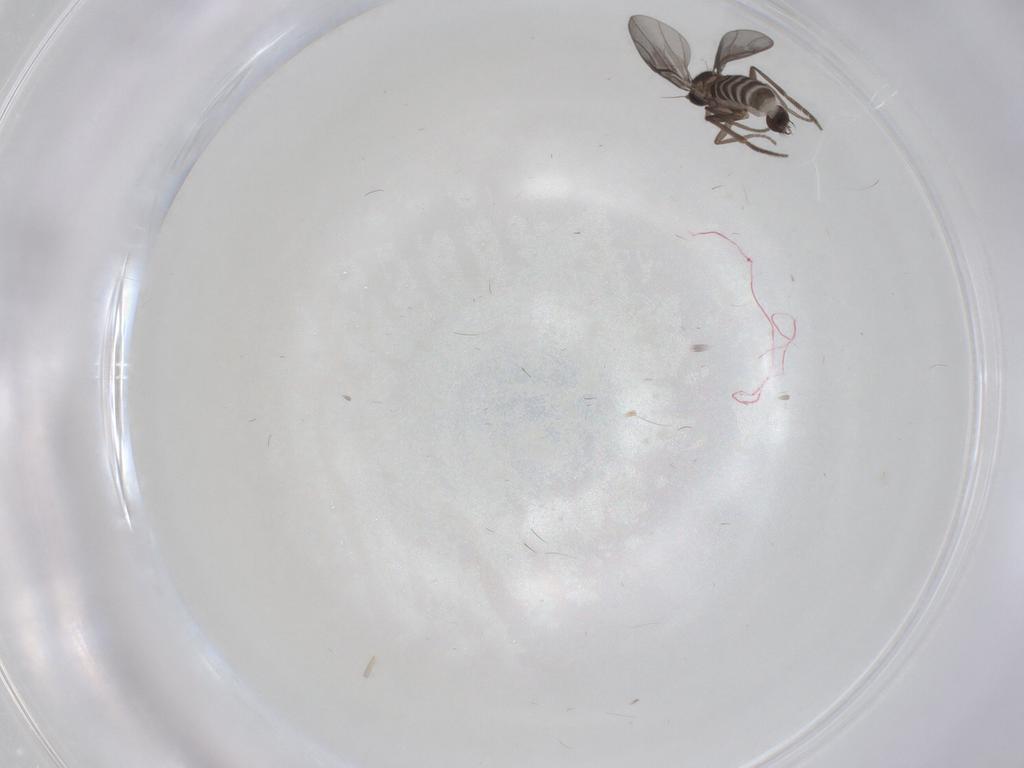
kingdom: Animalia
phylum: Arthropoda
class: Insecta
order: Diptera
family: Phoridae
